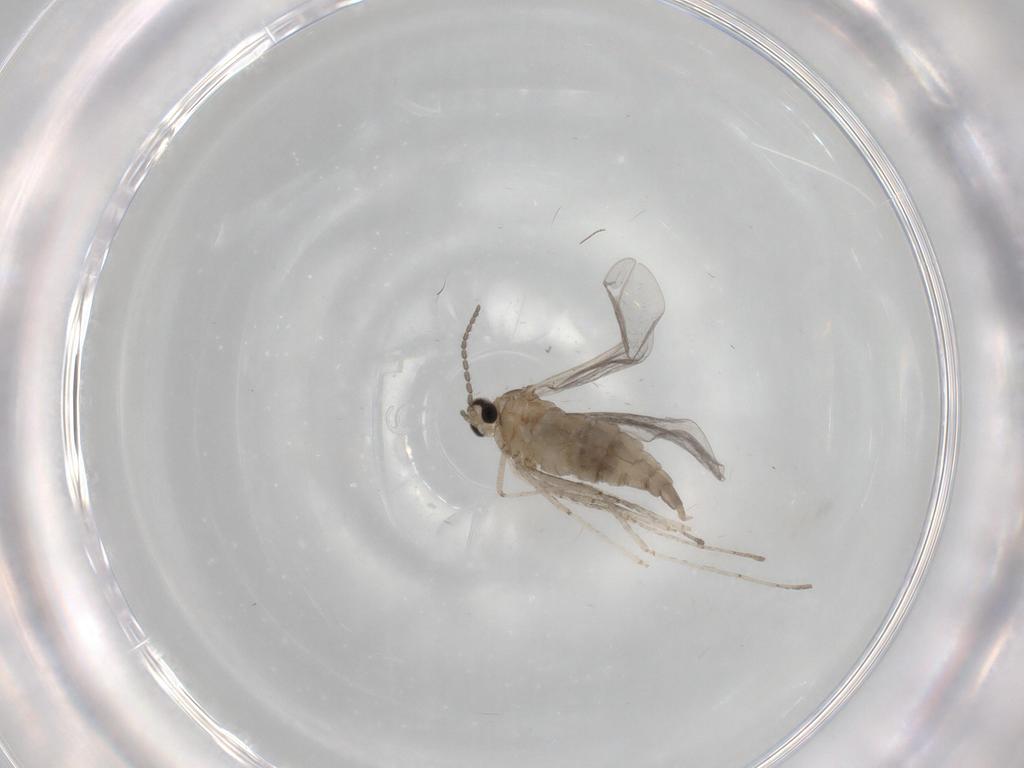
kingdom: Animalia
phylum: Arthropoda
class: Insecta
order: Diptera
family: Cecidomyiidae
